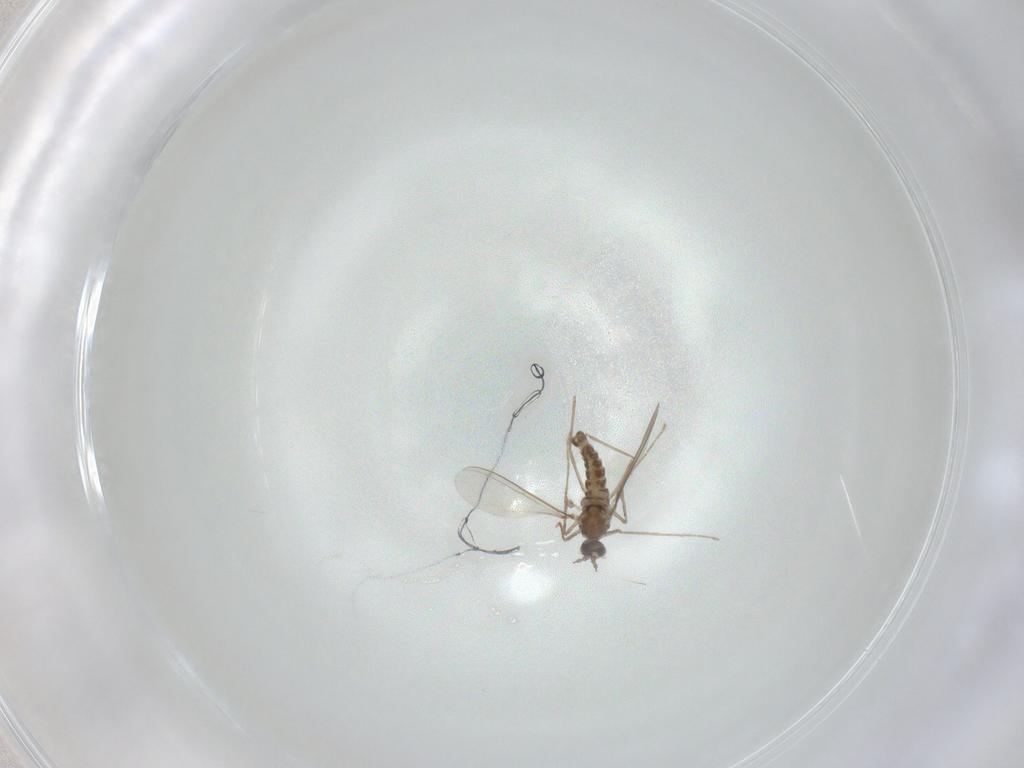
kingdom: Animalia
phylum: Arthropoda
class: Insecta
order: Diptera
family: Cecidomyiidae
